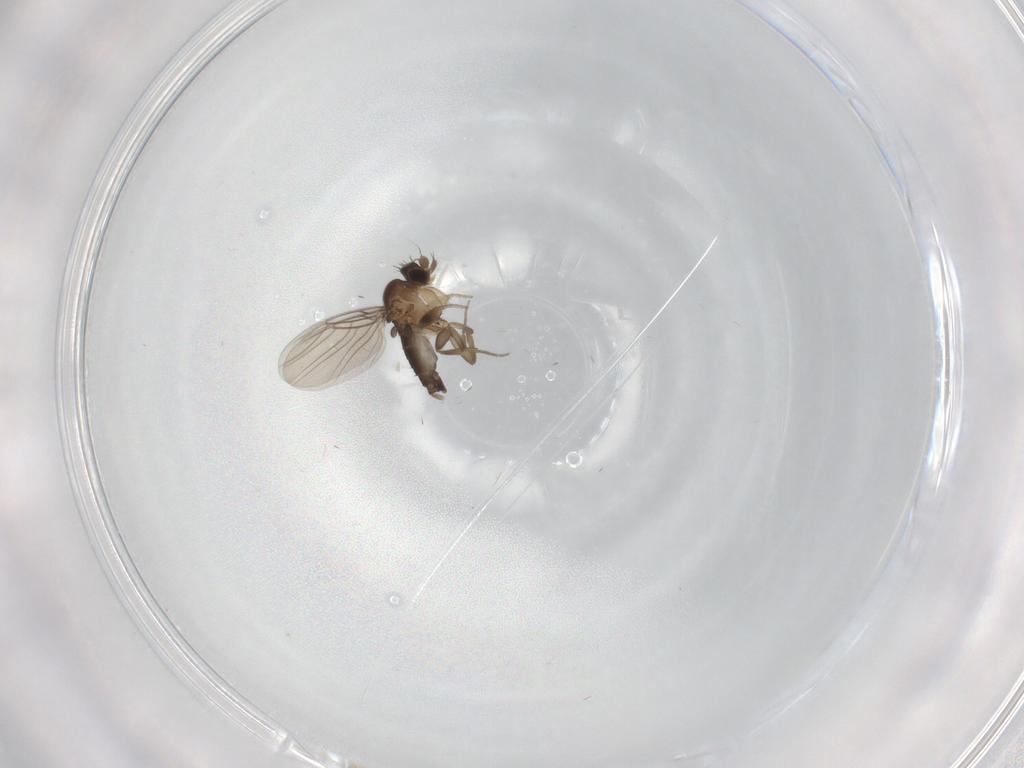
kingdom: Animalia
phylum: Arthropoda
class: Insecta
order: Diptera
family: Phoridae
